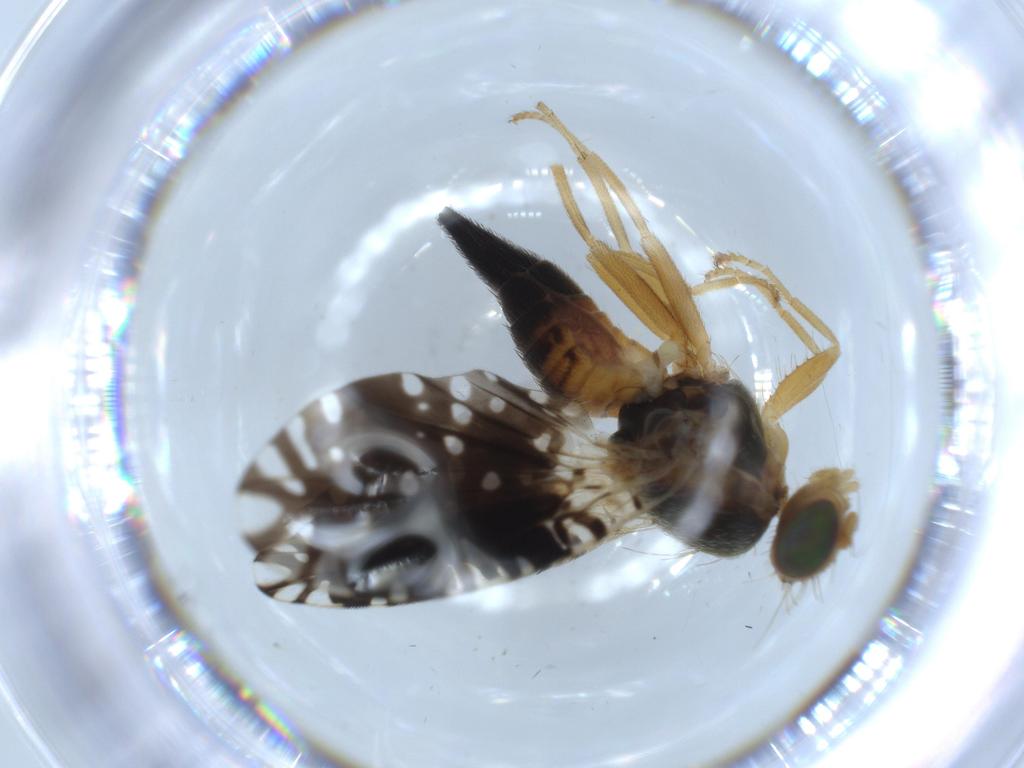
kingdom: Animalia
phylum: Arthropoda
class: Insecta
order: Diptera
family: Tephritidae
